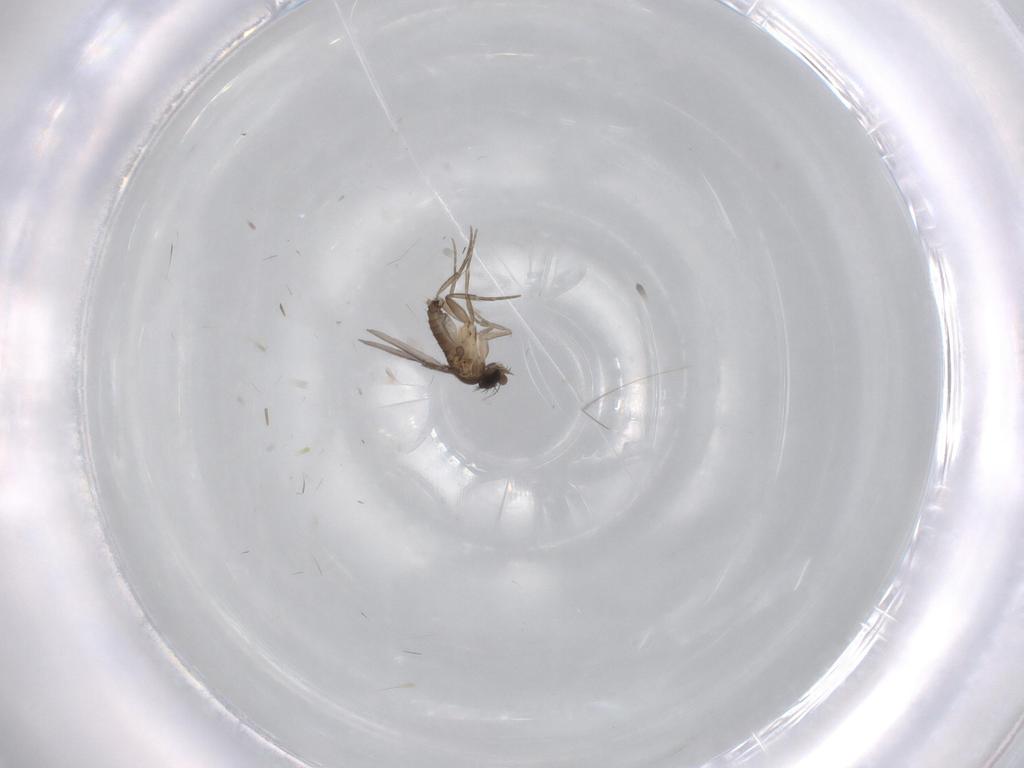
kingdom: Animalia
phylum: Arthropoda
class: Insecta
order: Diptera
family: Phoridae
